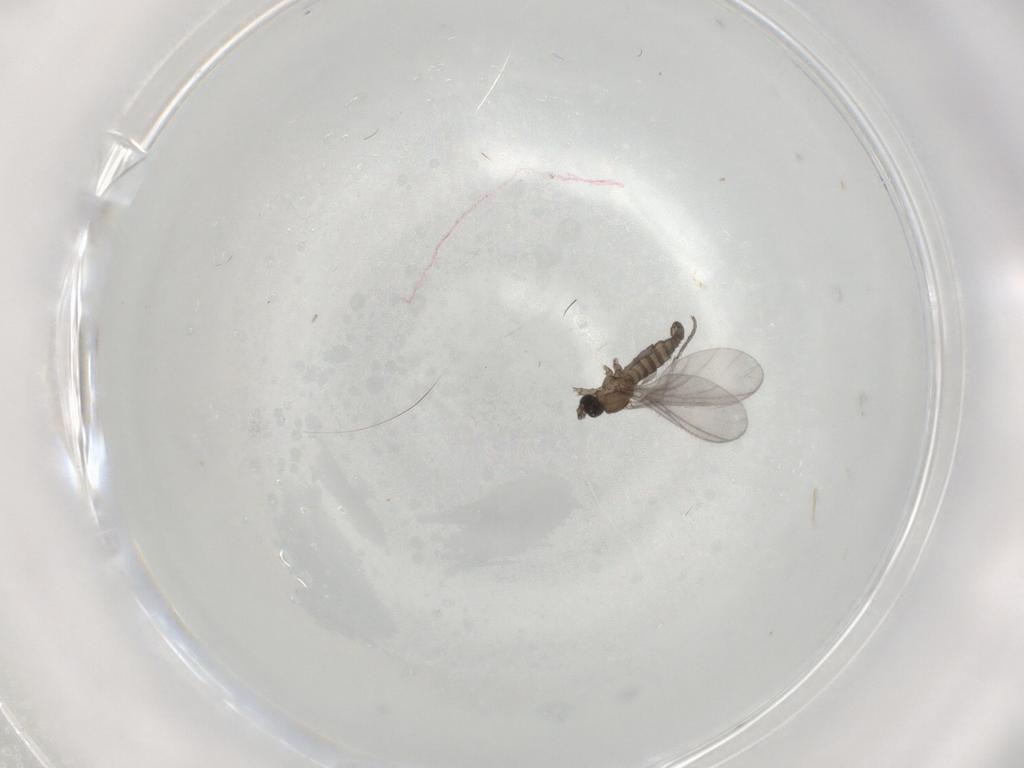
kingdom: Animalia
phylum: Arthropoda
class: Insecta
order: Diptera
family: Sciaridae
